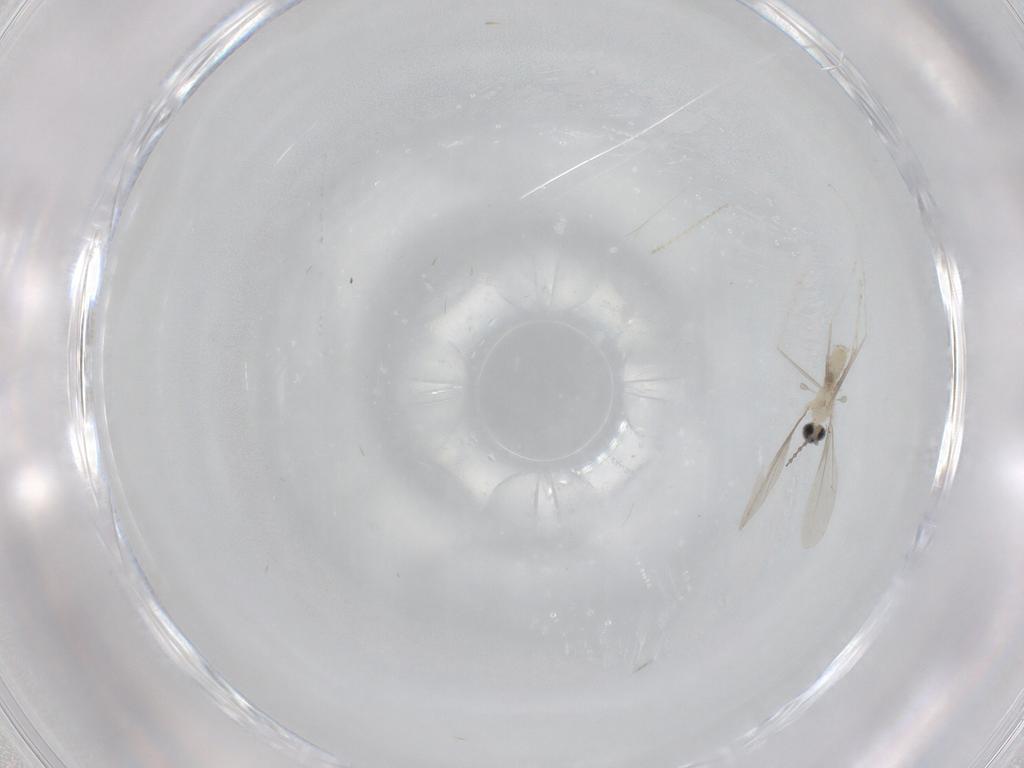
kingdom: Animalia
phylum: Arthropoda
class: Insecta
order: Diptera
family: Cecidomyiidae
